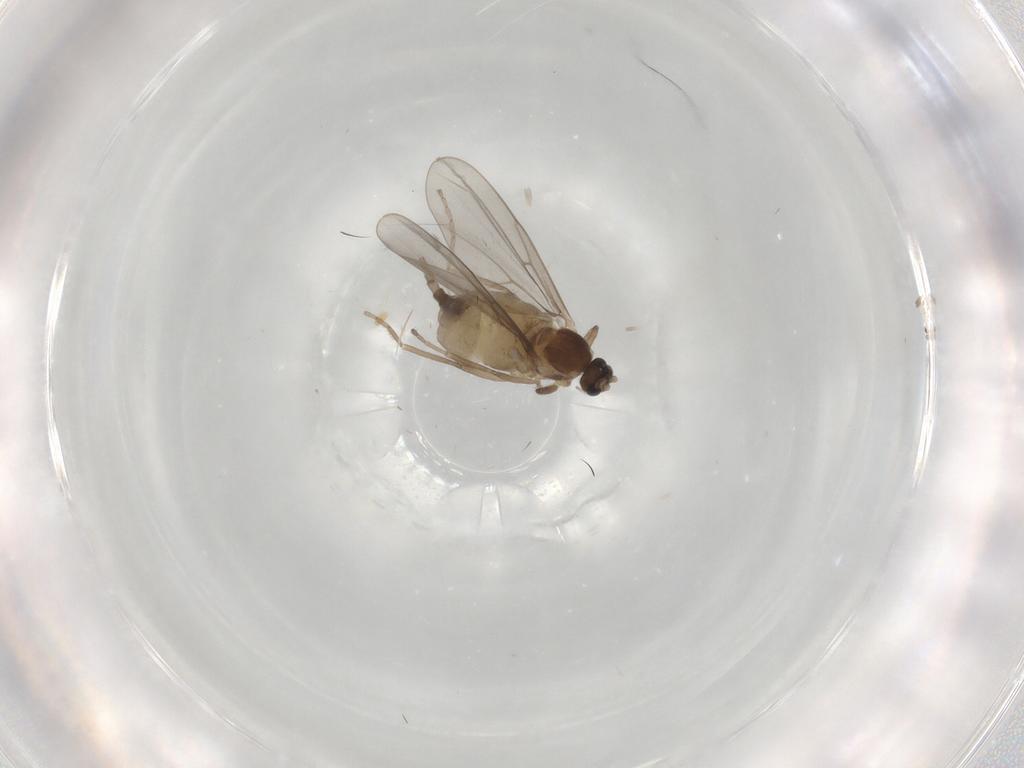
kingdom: Animalia
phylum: Arthropoda
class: Insecta
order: Diptera
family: Cecidomyiidae
